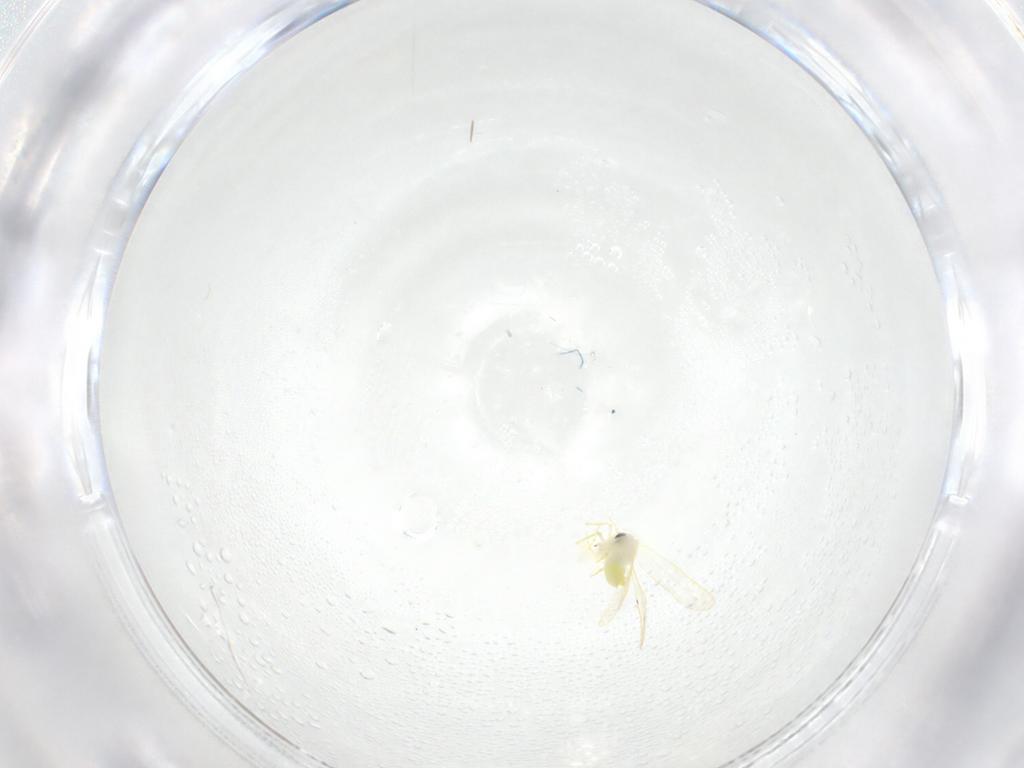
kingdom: Animalia
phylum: Arthropoda
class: Insecta
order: Hemiptera
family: Aleyrodidae
